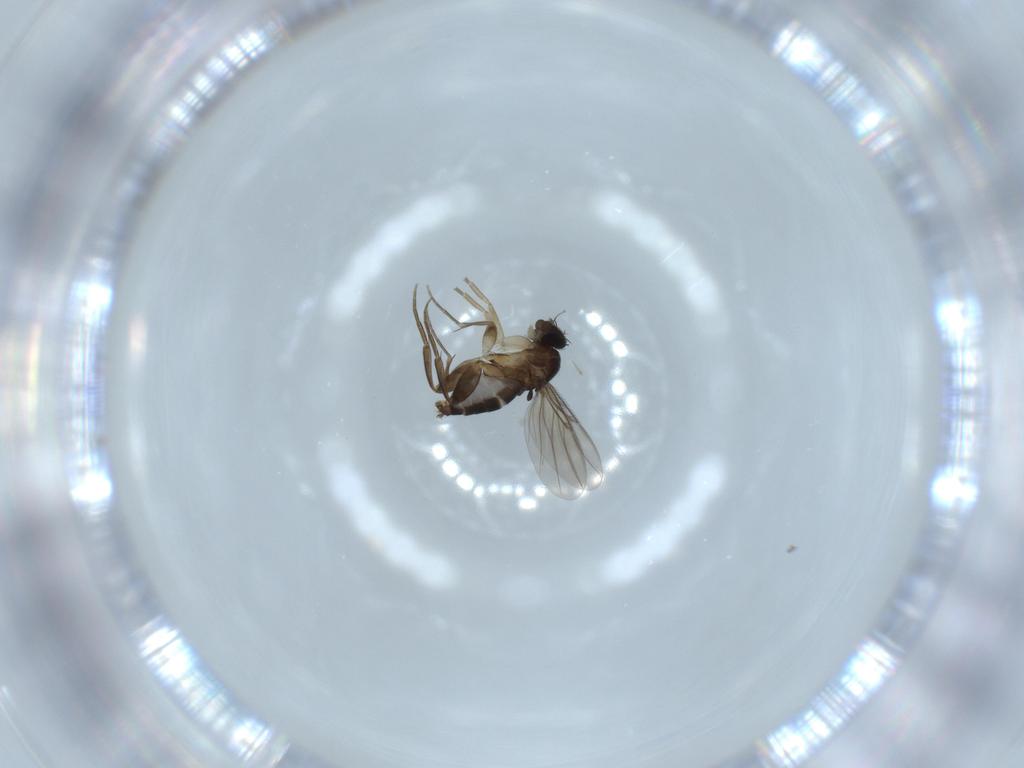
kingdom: Animalia
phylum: Arthropoda
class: Insecta
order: Diptera
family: Phoridae
